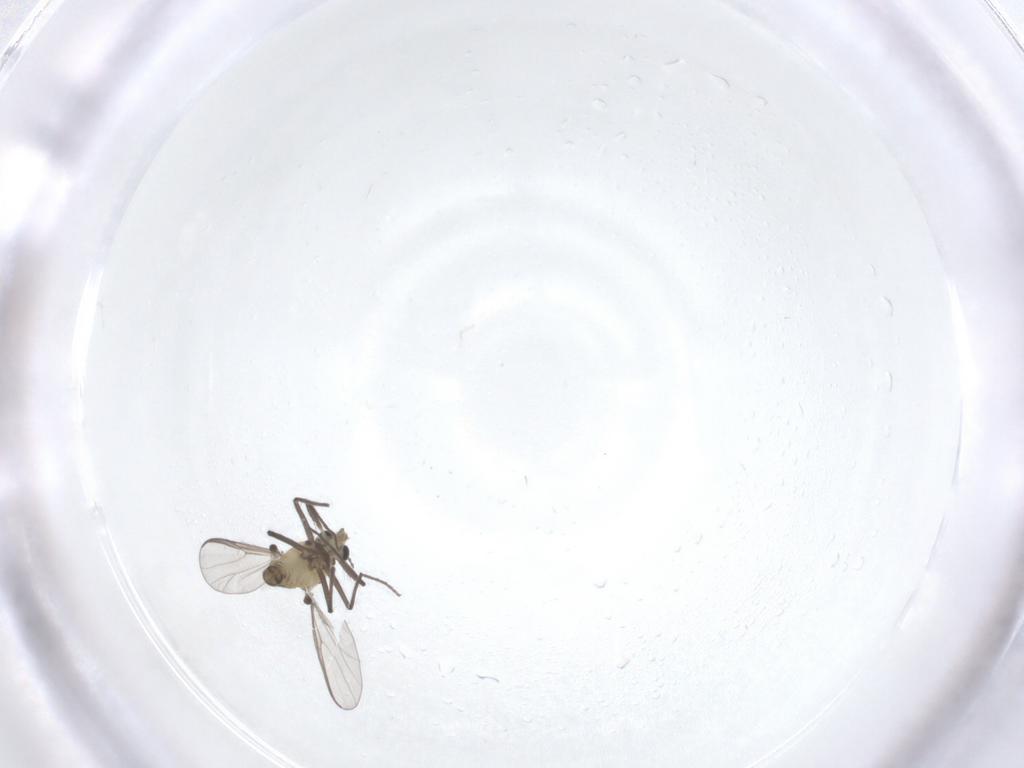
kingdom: Animalia
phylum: Arthropoda
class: Insecta
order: Diptera
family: Chironomidae
